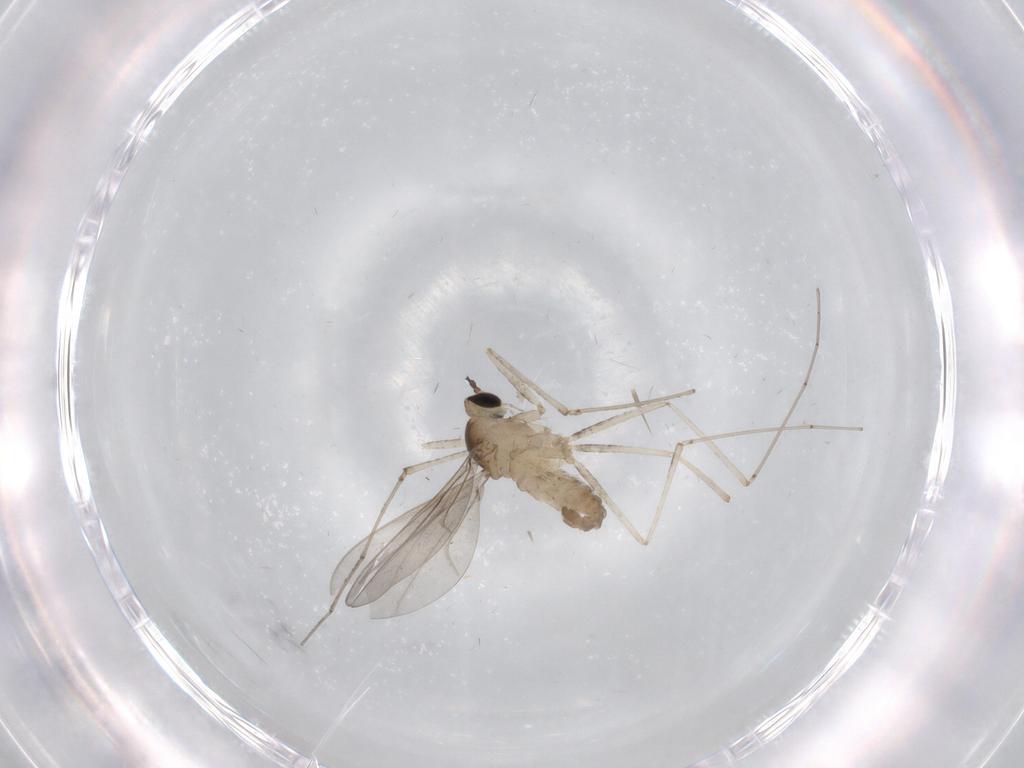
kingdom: Animalia
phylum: Arthropoda
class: Insecta
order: Diptera
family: Cecidomyiidae
